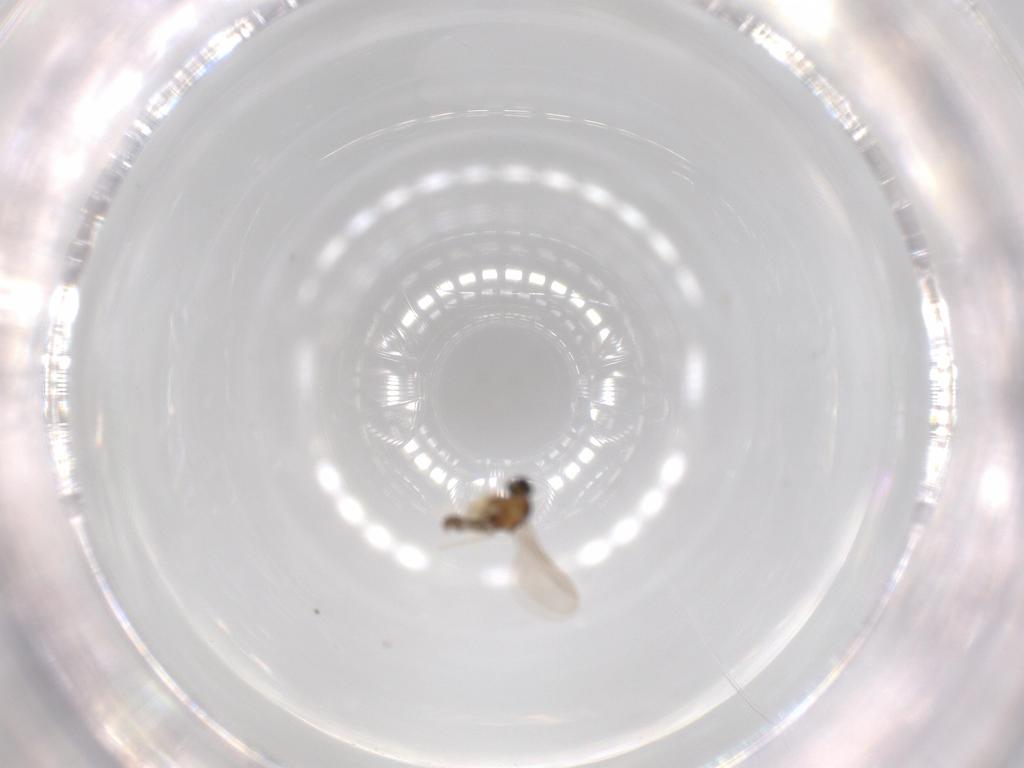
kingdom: Animalia
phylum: Arthropoda
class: Insecta
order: Diptera
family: Cecidomyiidae
